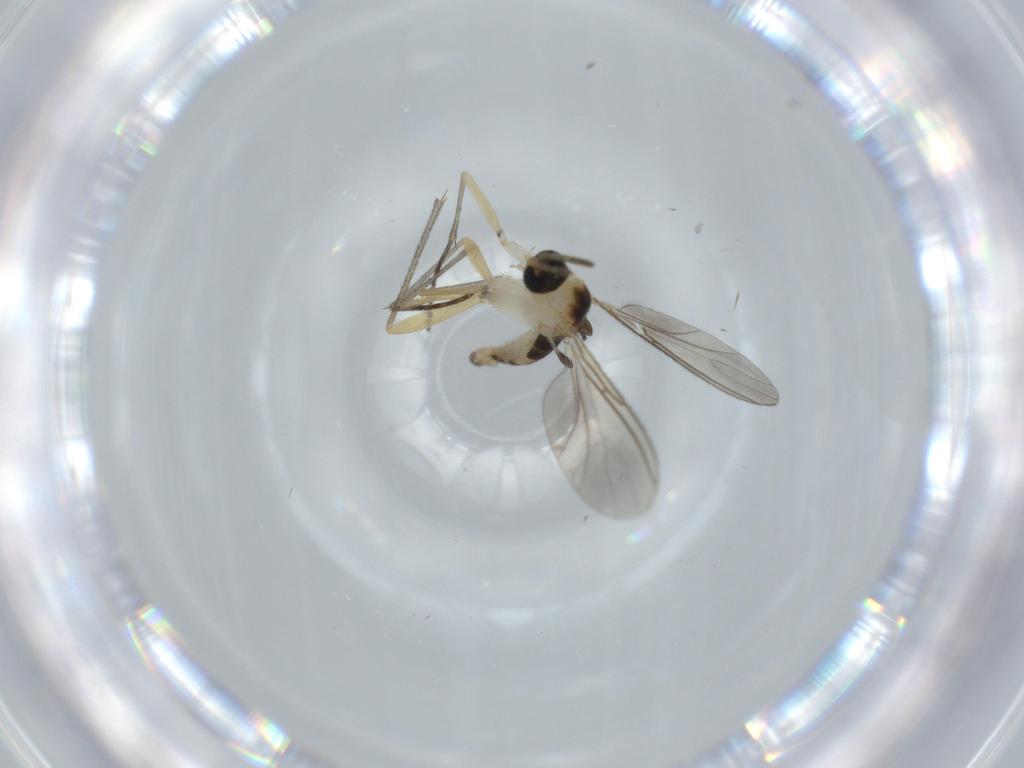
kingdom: Animalia
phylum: Arthropoda
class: Insecta
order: Diptera
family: Sciaridae
